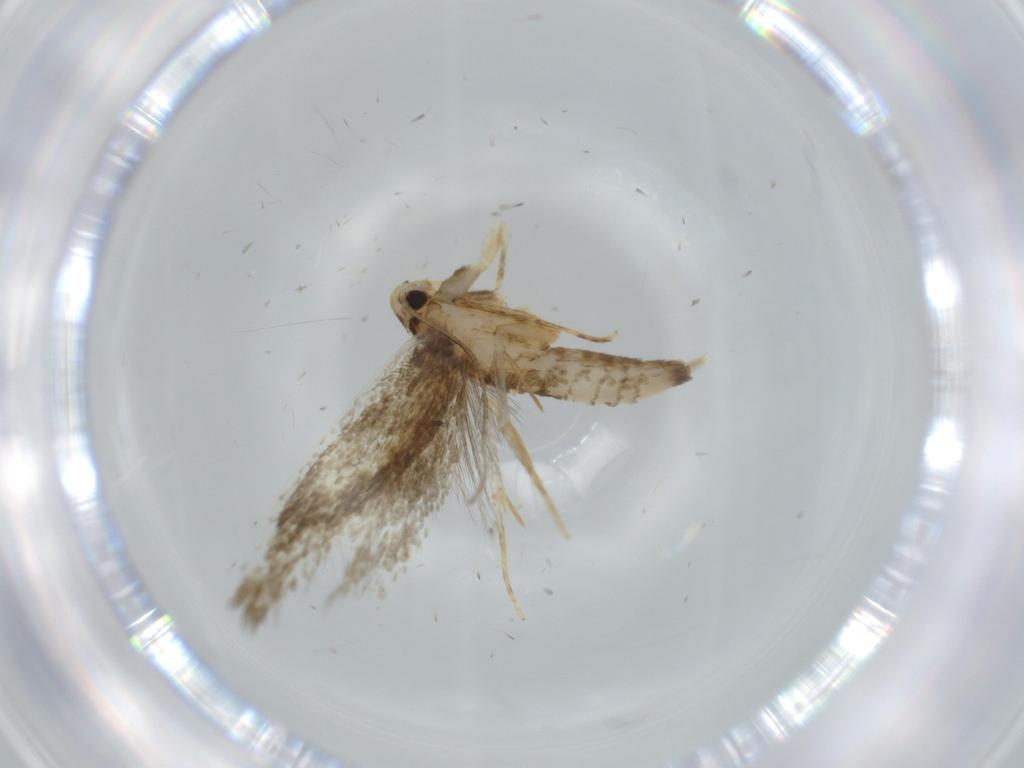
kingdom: Animalia
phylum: Arthropoda
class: Insecta
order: Lepidoptera
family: Tineidae
